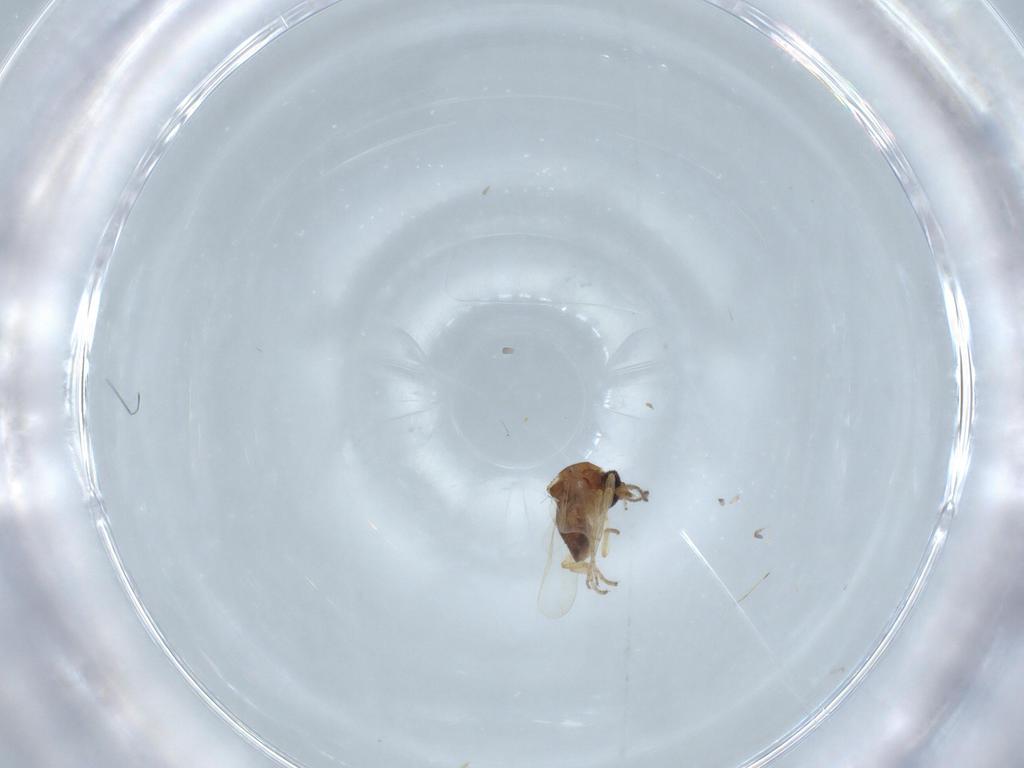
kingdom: Animalia
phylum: Arthropoda
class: Insecta
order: Diptera
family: Ceratopogonidae
